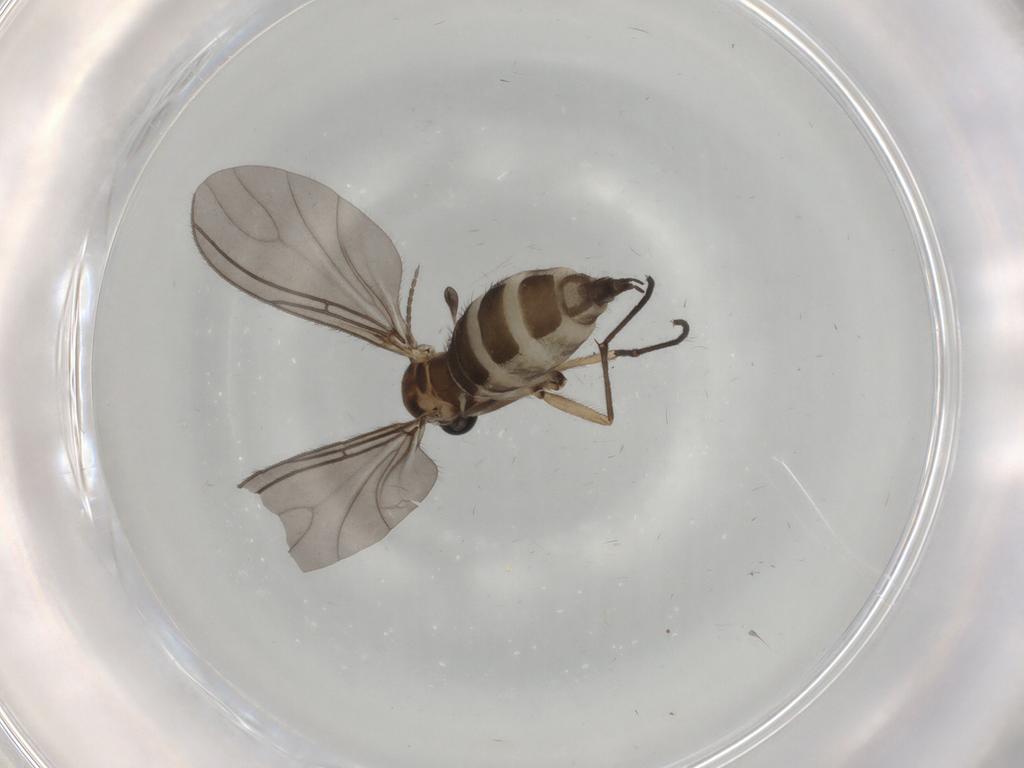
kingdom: Animalia
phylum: Arthropoda
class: Insecta
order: Diptera
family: Sciaridae
